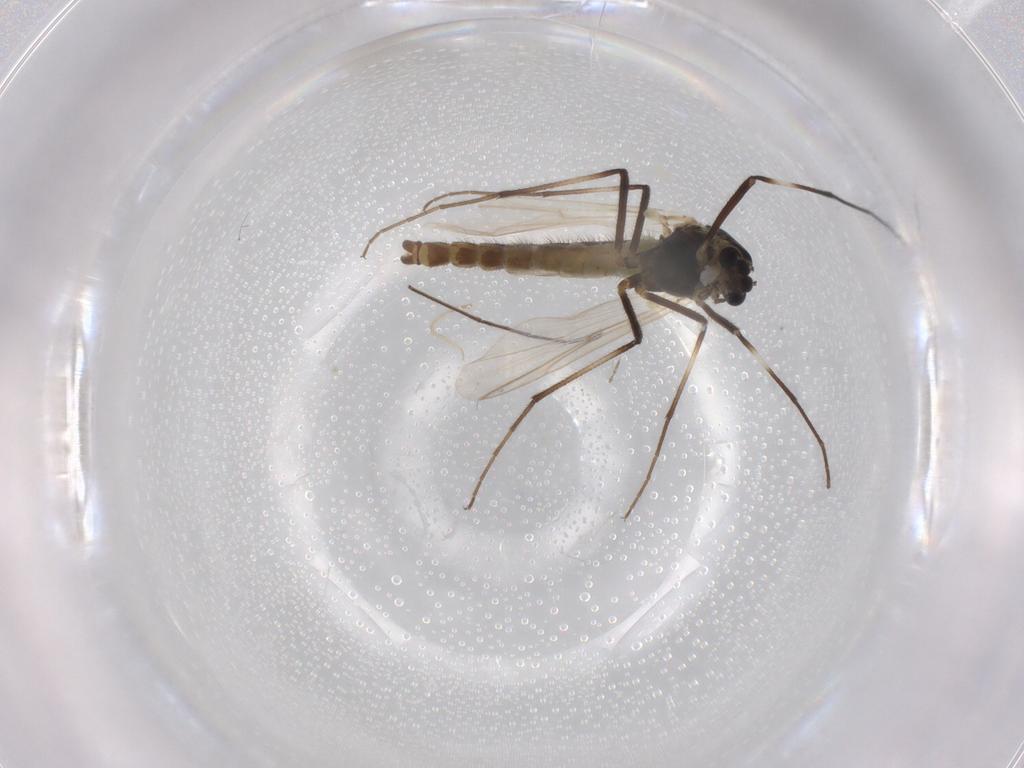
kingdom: Animalia
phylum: Arthropoda
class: Insecta
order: Diptera
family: Chironomidae
